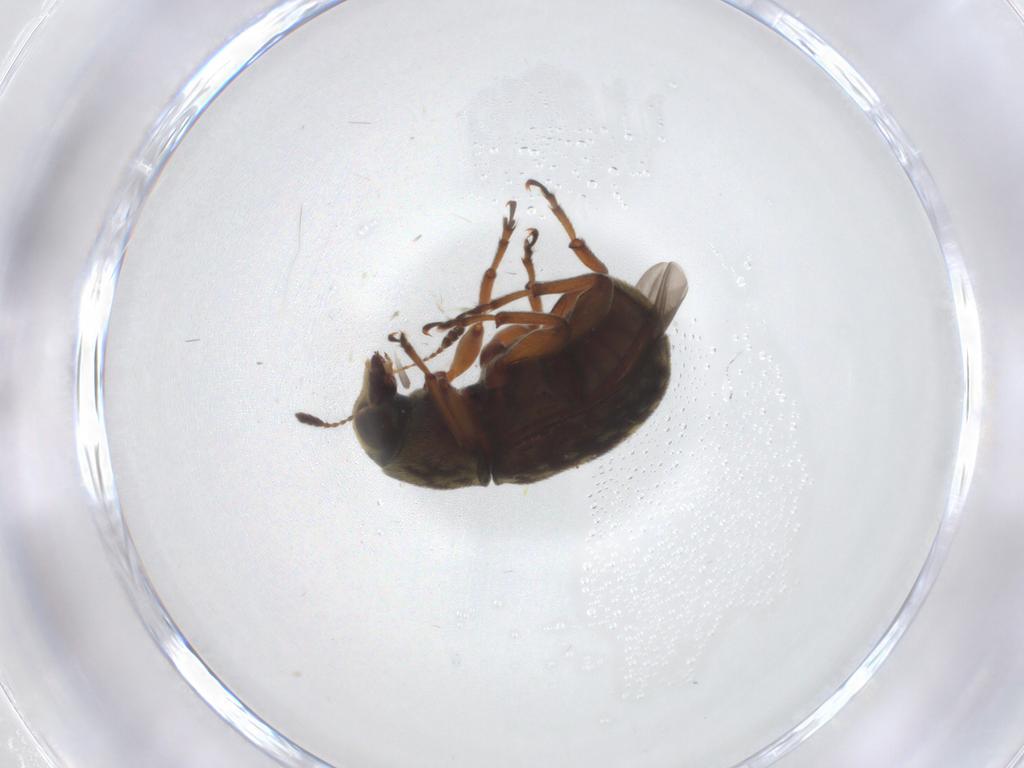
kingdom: Animalia
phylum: Arthropoda
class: Insecta
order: Coleoptera
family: Anthribidae
